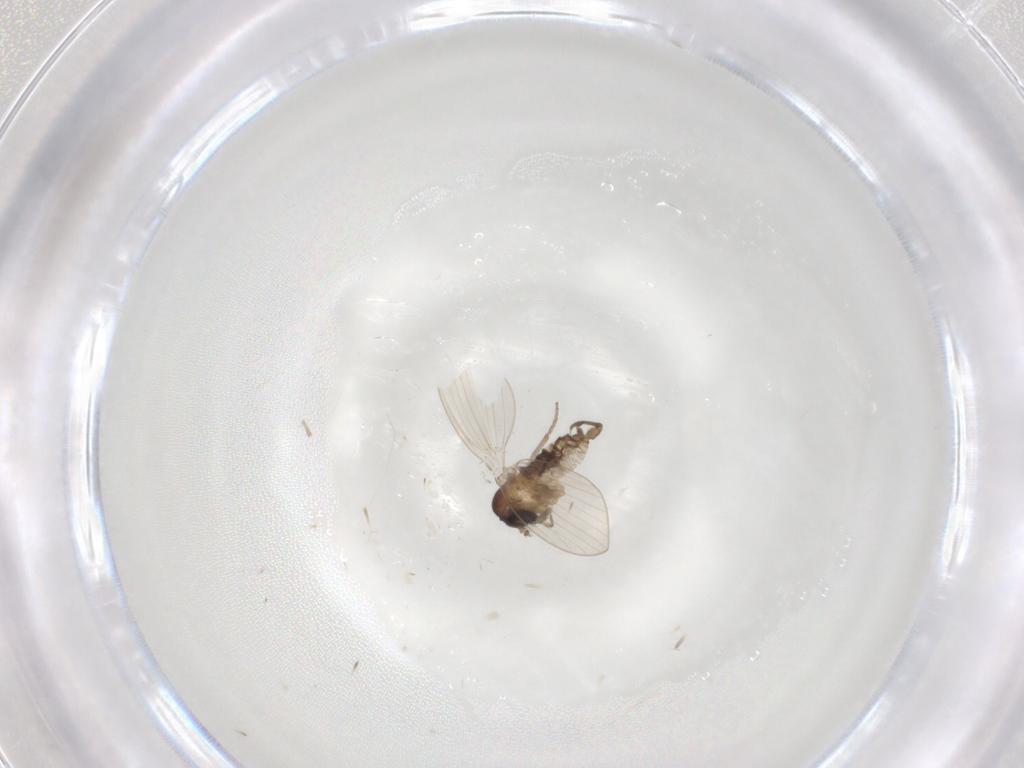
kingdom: Animalia
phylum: Arthropoda
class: Insecta
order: Diptera
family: Psychodidae
